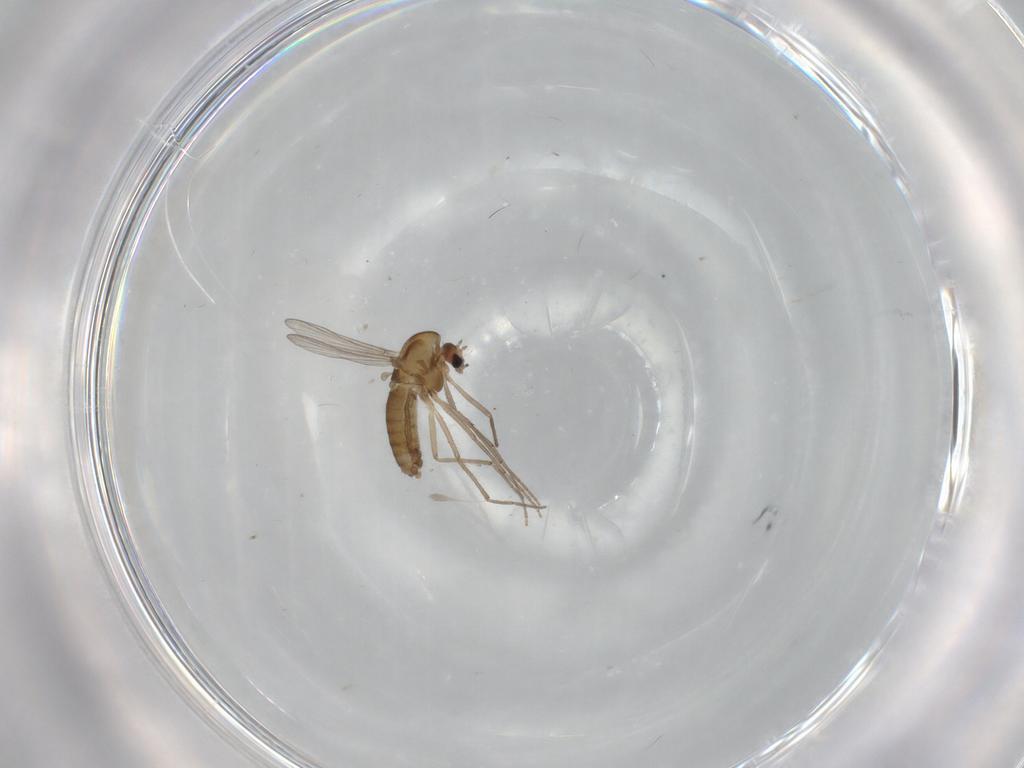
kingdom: Animalia
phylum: Arthropoda
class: Insecta
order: Diptera
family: Chironomidae
